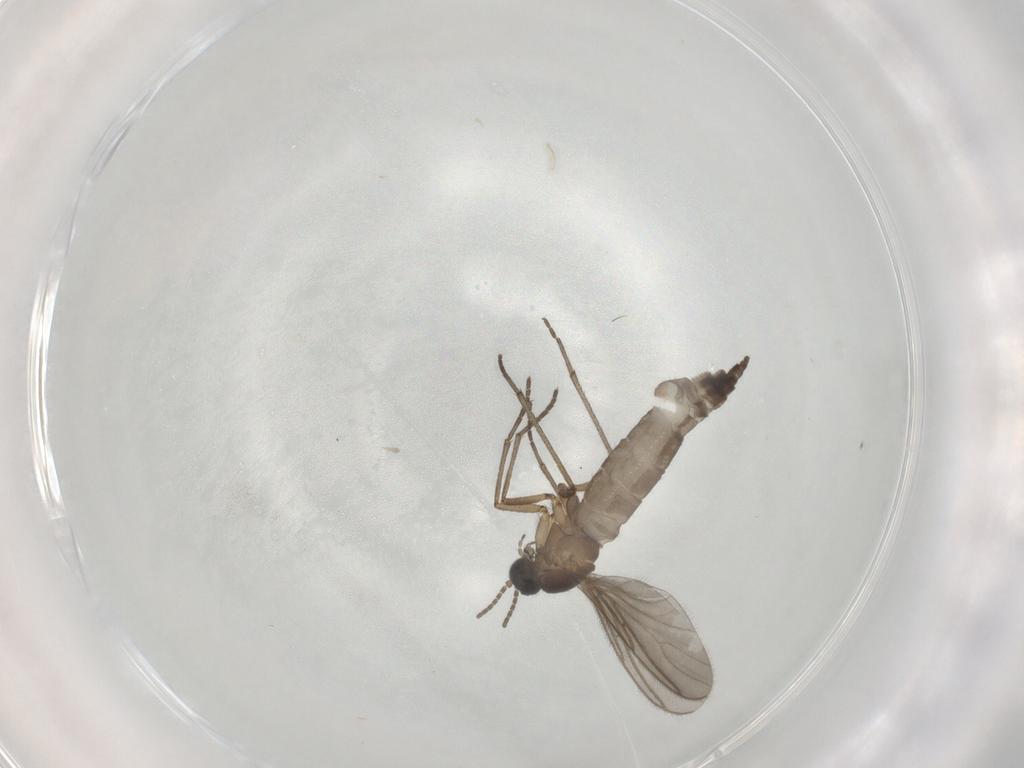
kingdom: Animalia
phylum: Arthropoda
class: Insecta
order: Diptera
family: Sciaridae
